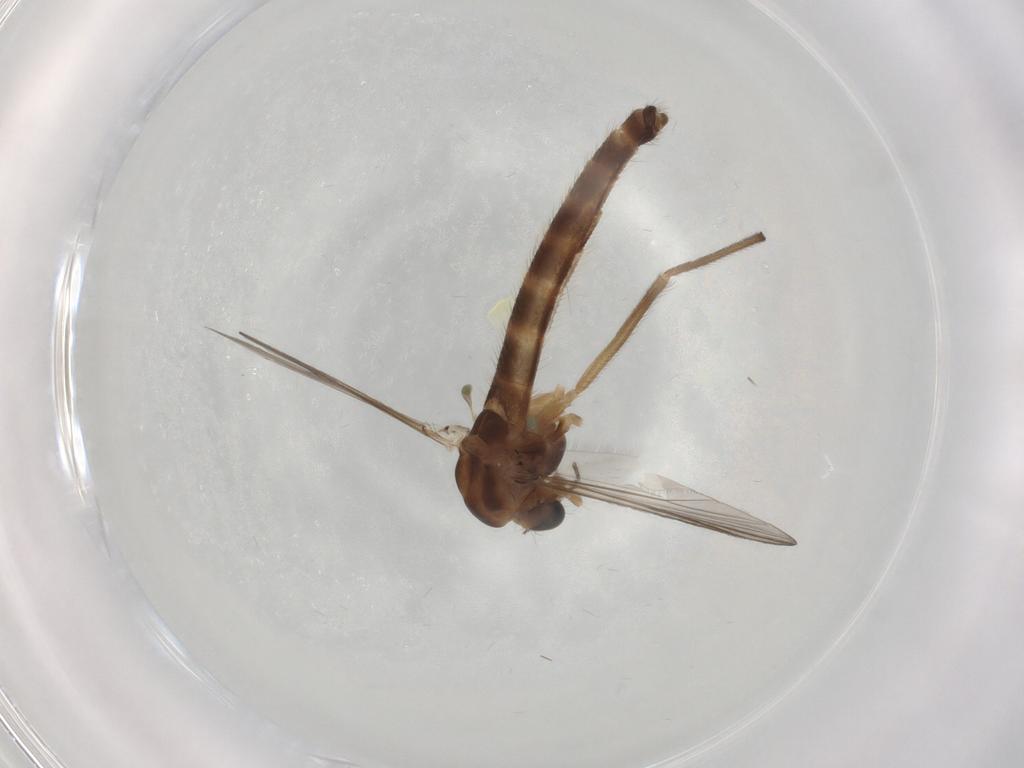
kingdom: Animalia
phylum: Arthropoda
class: Insecta
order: Diptera
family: Chironomidae
